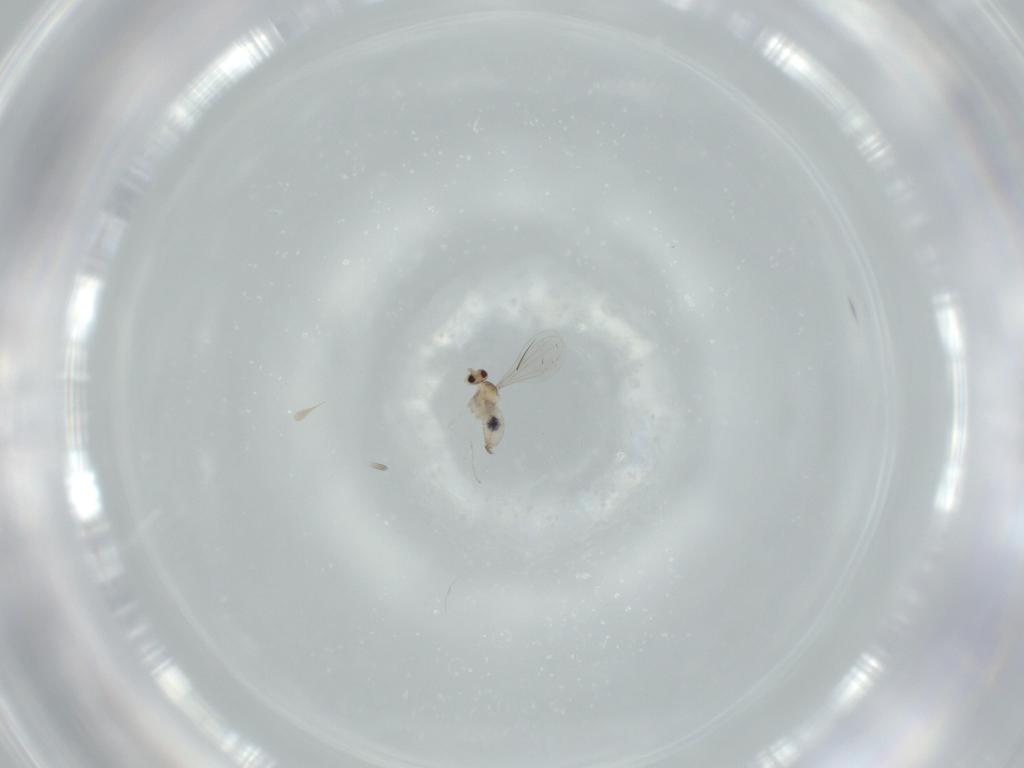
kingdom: Animalia
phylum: Arthropoda
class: Insecta
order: Diptera
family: Cecidomyiidae
